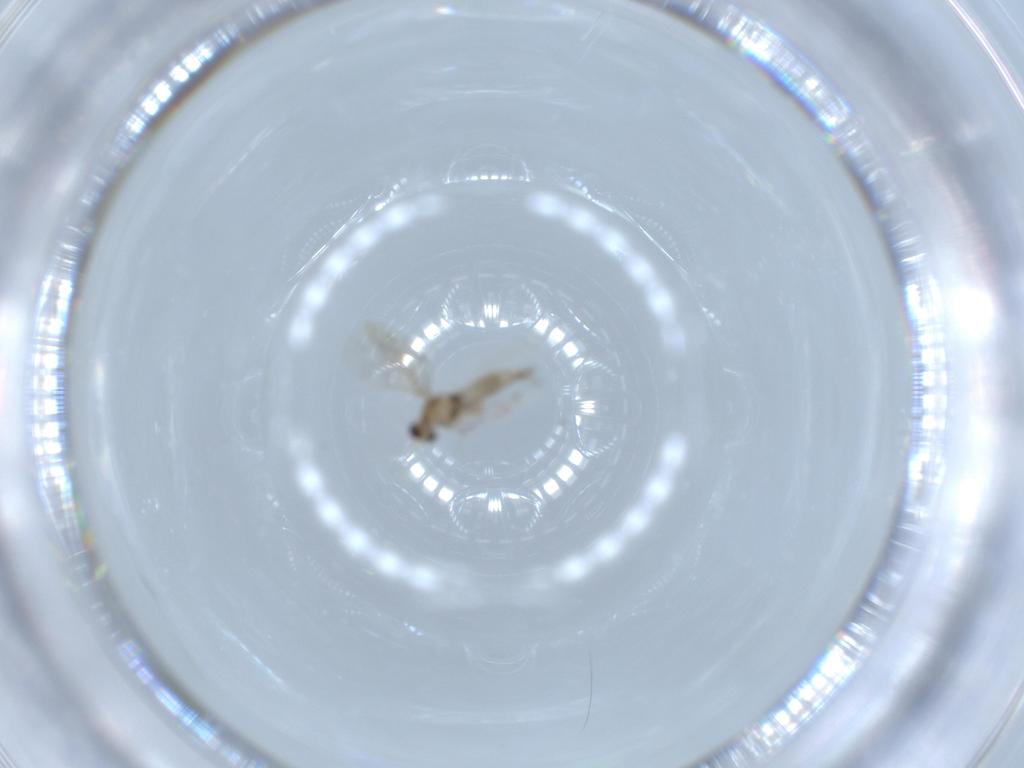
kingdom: Animalia
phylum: Arthropoda
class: Insecta
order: Diptera
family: Cecidomyiidae
